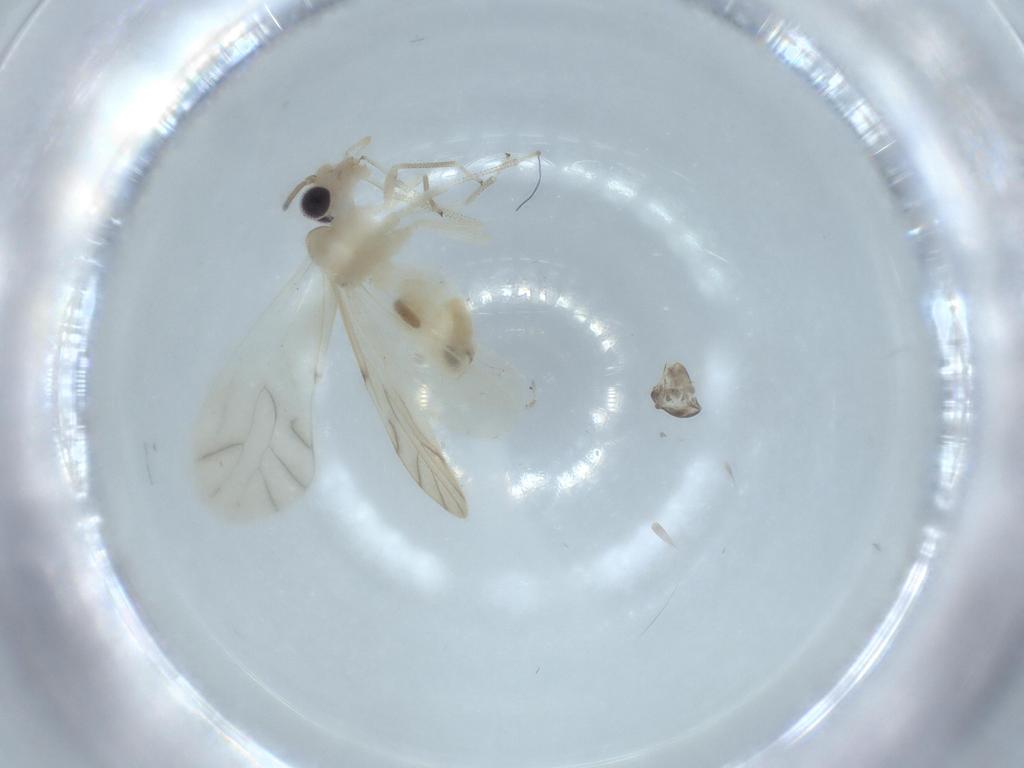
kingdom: Animalia
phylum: Arthropoda
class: Insecta
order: Psocodea
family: Caeciliusidae
